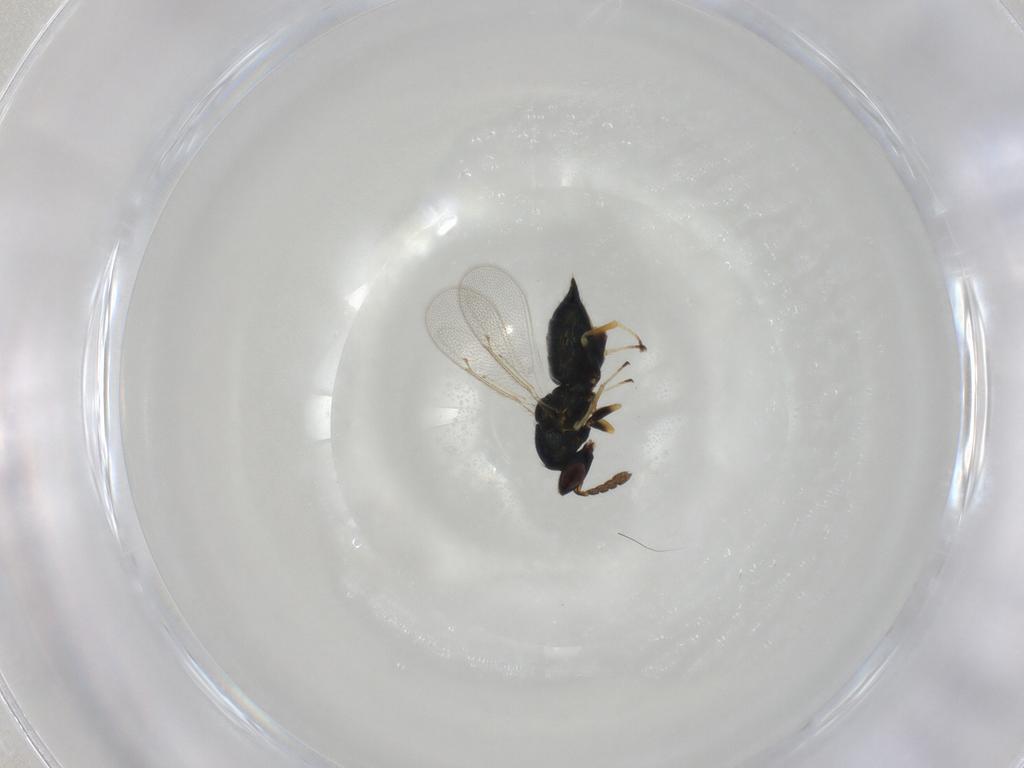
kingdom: Animalia
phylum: Arthropoda
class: Insecta
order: Hymenoptera
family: Eulophidae
